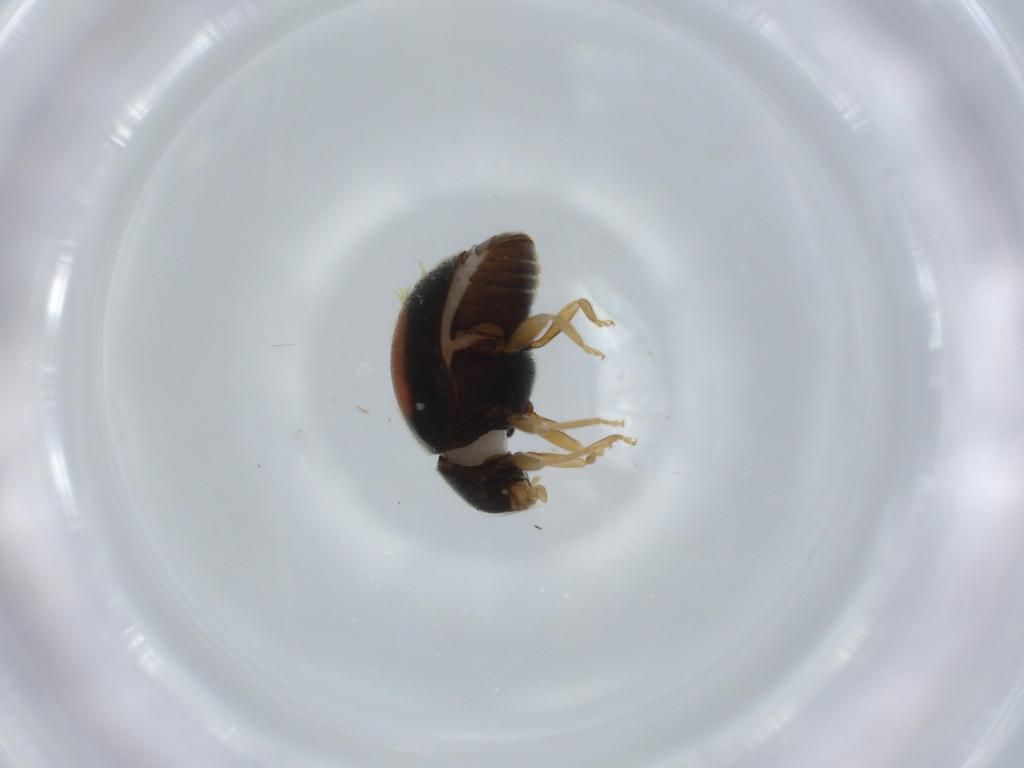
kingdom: Animalia
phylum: Arthropoda
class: Insecta
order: Coleoptera
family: Coccinellidae
